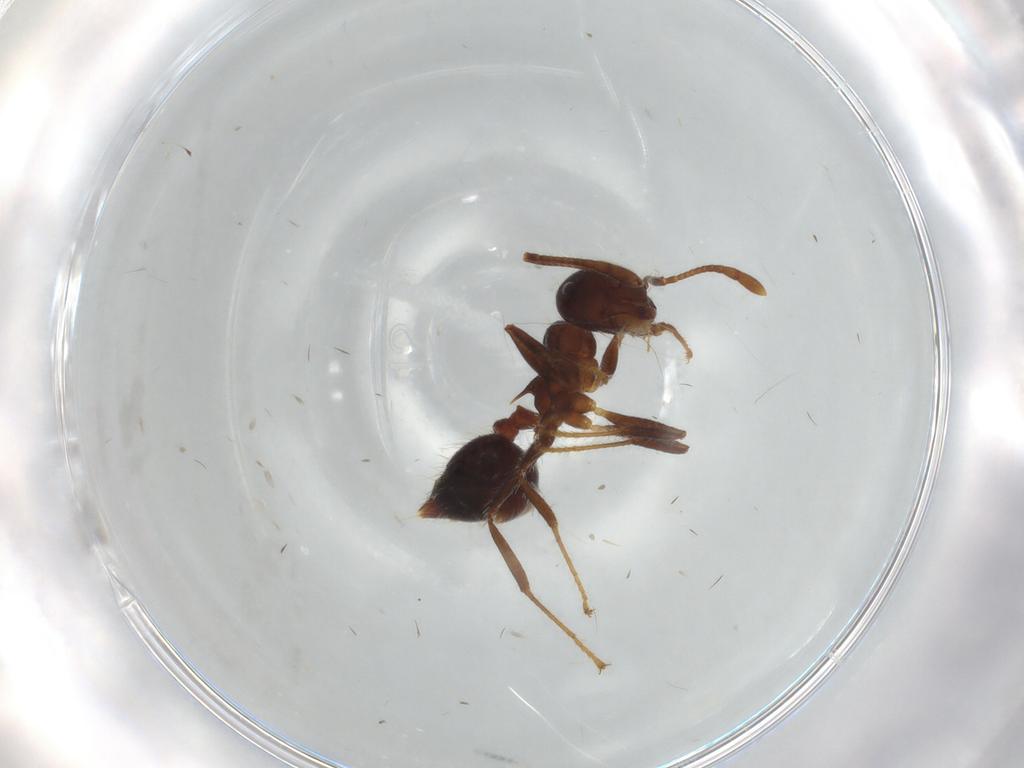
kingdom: Animalia
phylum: Arthropoda
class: Insecta
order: Hymenoptera
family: Formicidae
